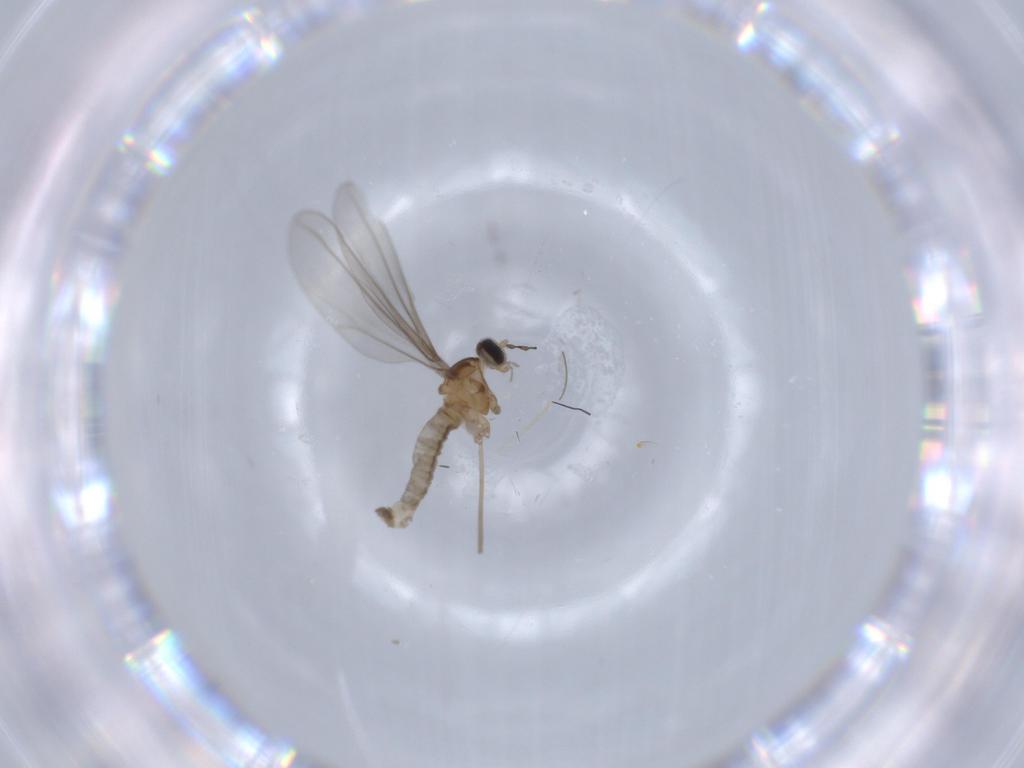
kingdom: Animalia
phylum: Arthropoda
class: Insecta
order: Diptera
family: Cecidomyiidae
